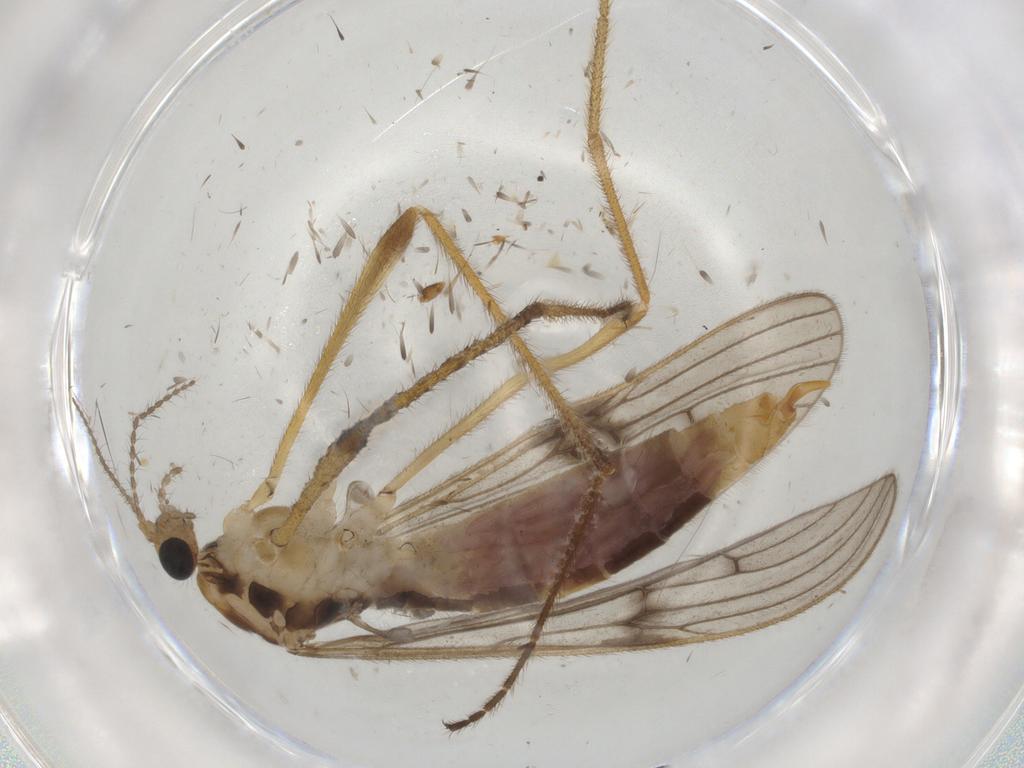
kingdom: Animalia
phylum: Arthropoda
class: Insecta
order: Diptera
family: Limoniidae
